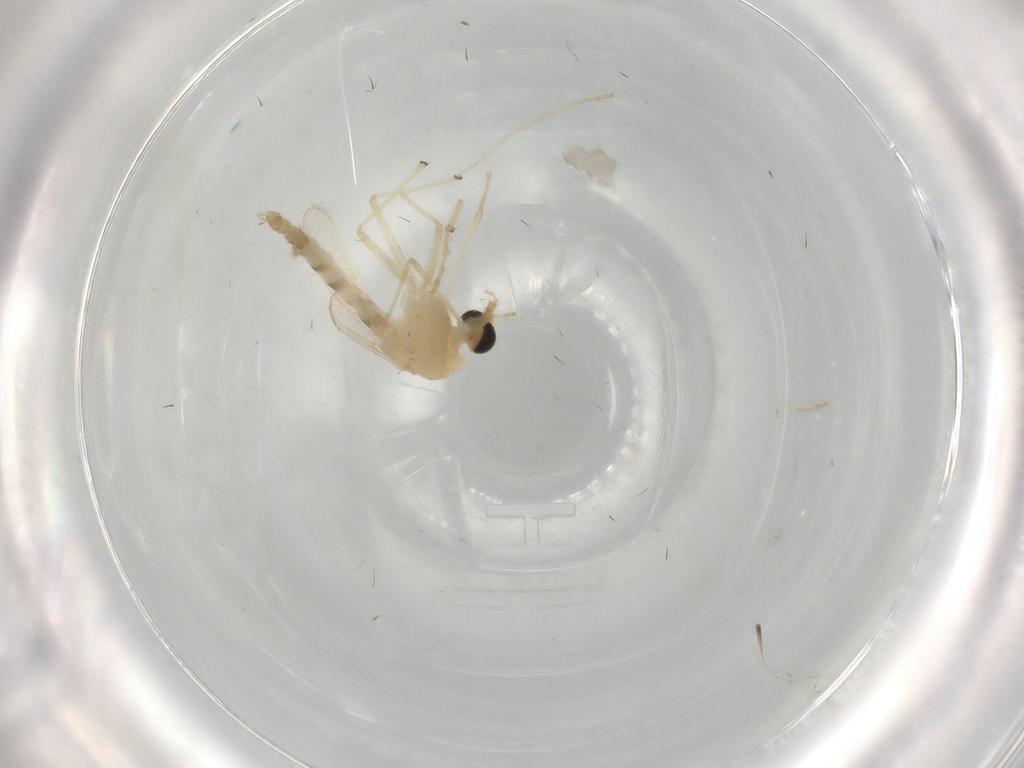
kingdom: Animalia
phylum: Arthropoda
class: Insecta
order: Diptera
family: Chironomidae
